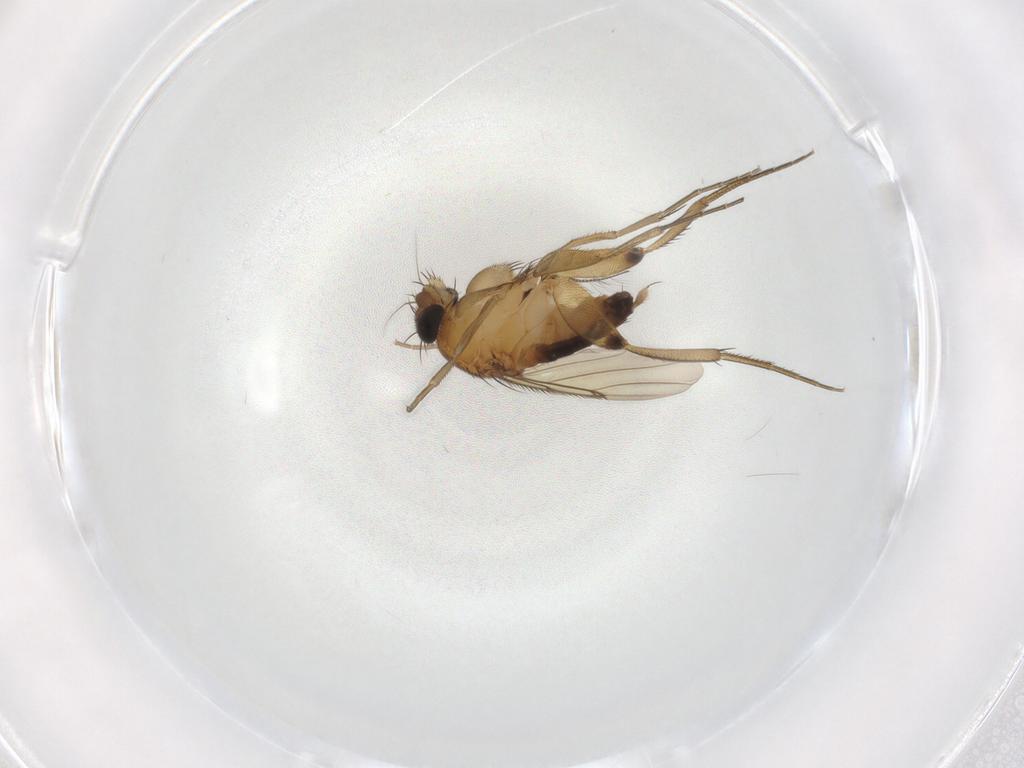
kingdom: Animalia
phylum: Arthropoda
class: Insecta
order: Diptera
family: Phoridae
